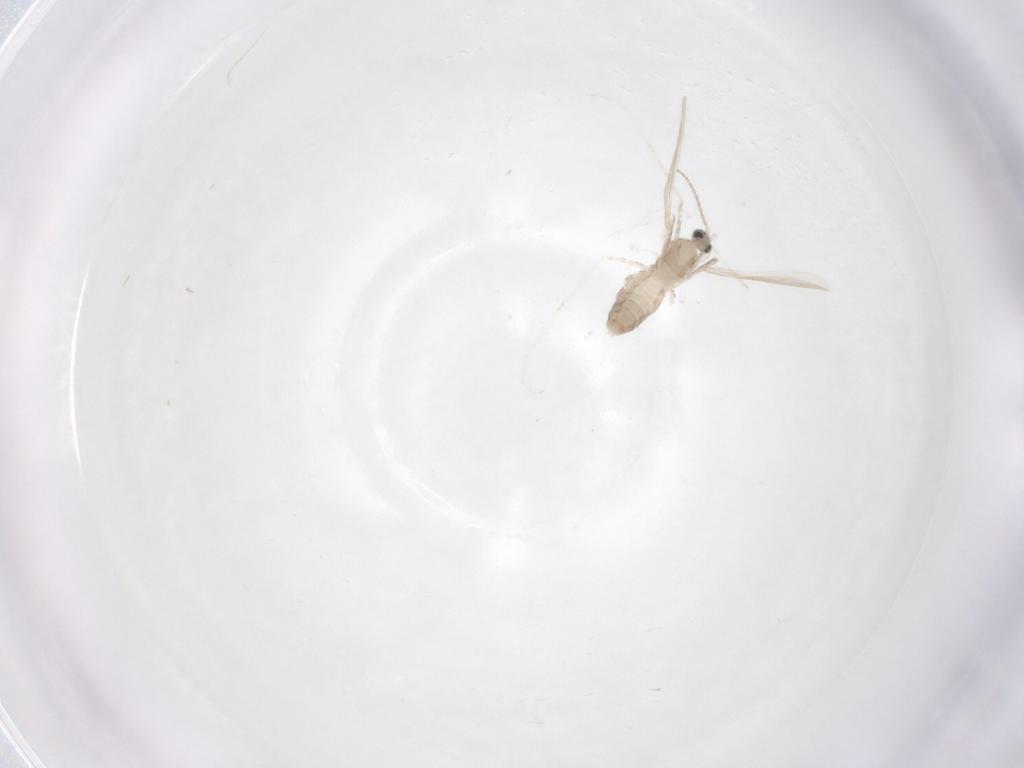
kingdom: Animalia
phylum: Arthropoda
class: Insecta
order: Diptera
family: Cecidomyiidae
